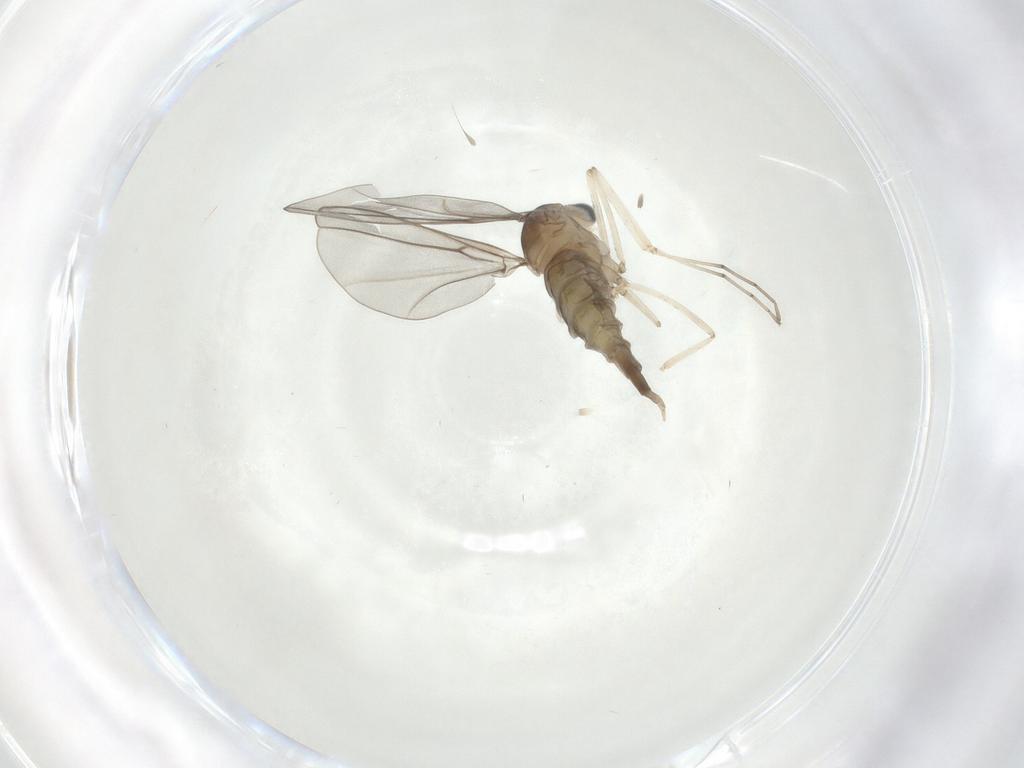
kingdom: Animalia
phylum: Arthropoda
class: Insecta
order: Diptera
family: Cecidomyiidae
